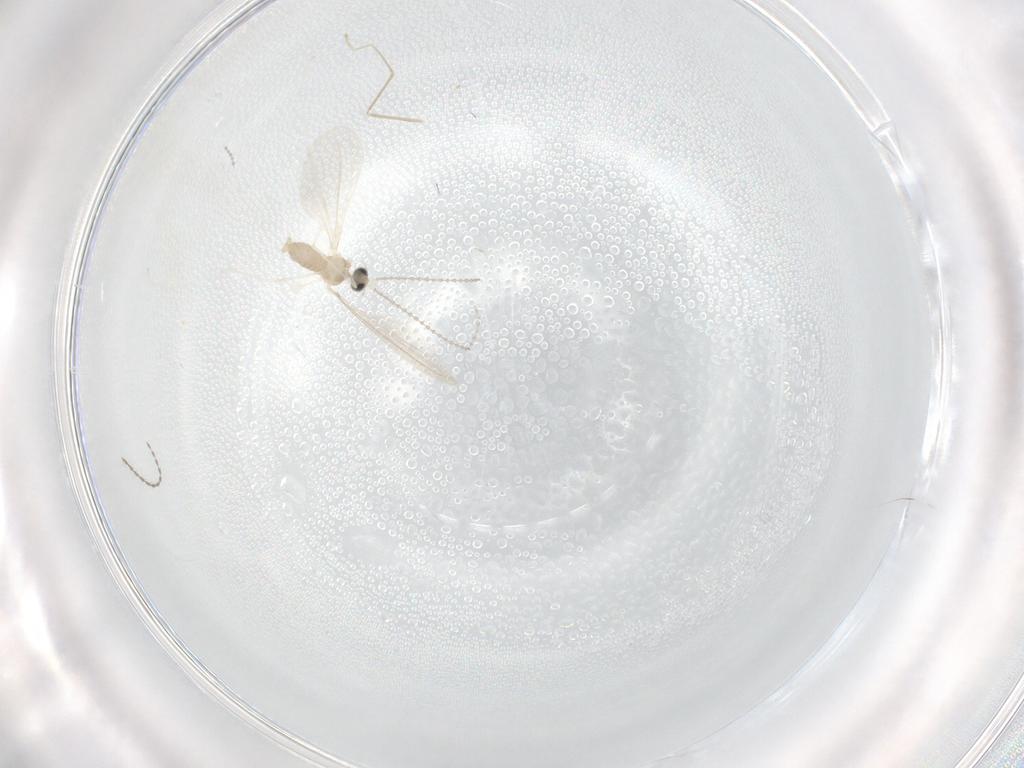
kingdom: Animalia
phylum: Arthropoda
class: Insecta
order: Diptera
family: Cecidomyiidae
